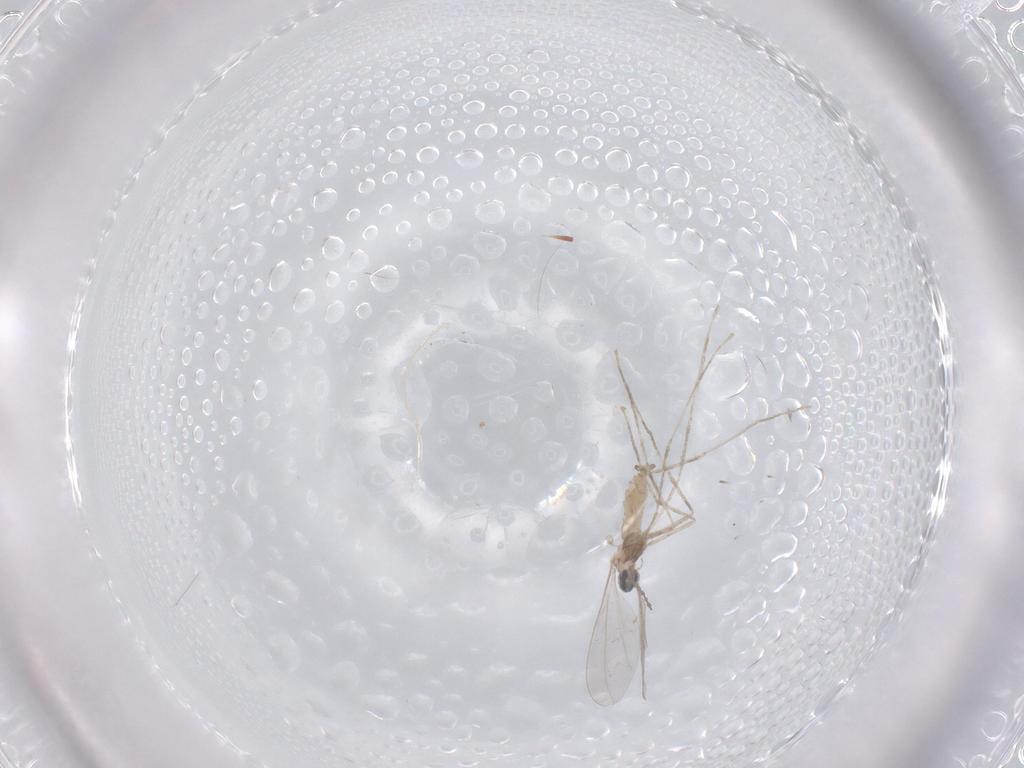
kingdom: Animalia
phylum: Arthropoda
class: Insecta
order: Diptera
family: Cecidomyiidae
